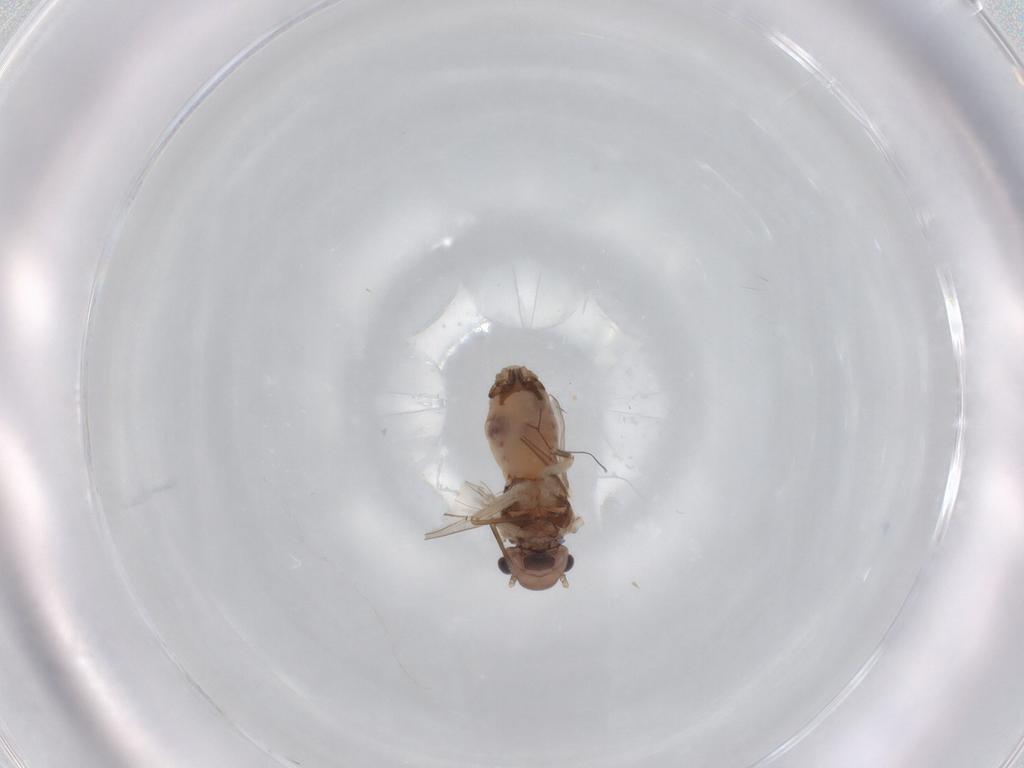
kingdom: Animalia
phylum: Arthropoda
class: Insecta
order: Psocodea
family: Peripsocidae
